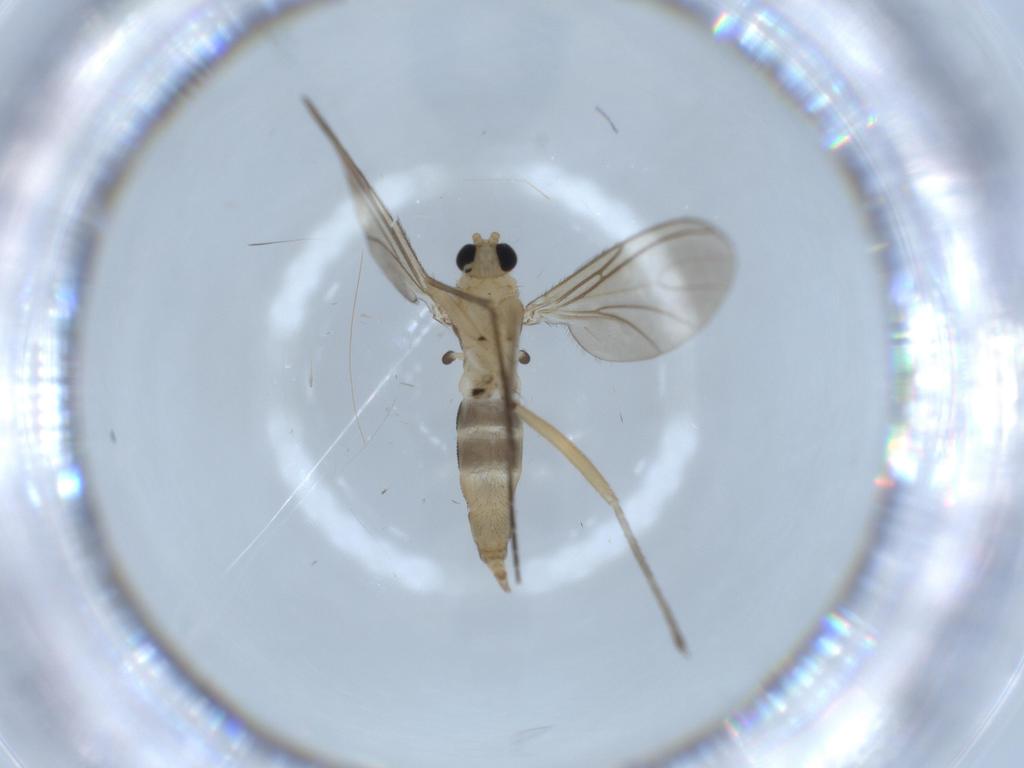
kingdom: Animalia
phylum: Arthropoda
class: Insecta
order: Diptera
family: Sciaridae
